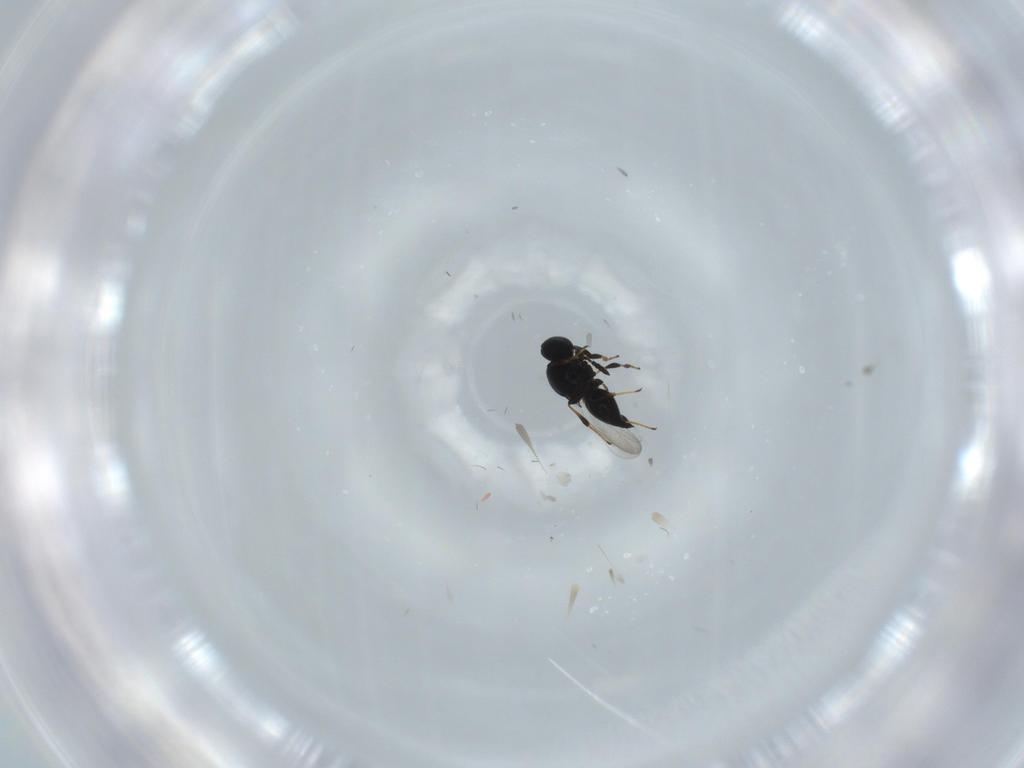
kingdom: Animalia
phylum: Arthropoda
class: Insecta
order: Hymenoptera
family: Platygastridae
